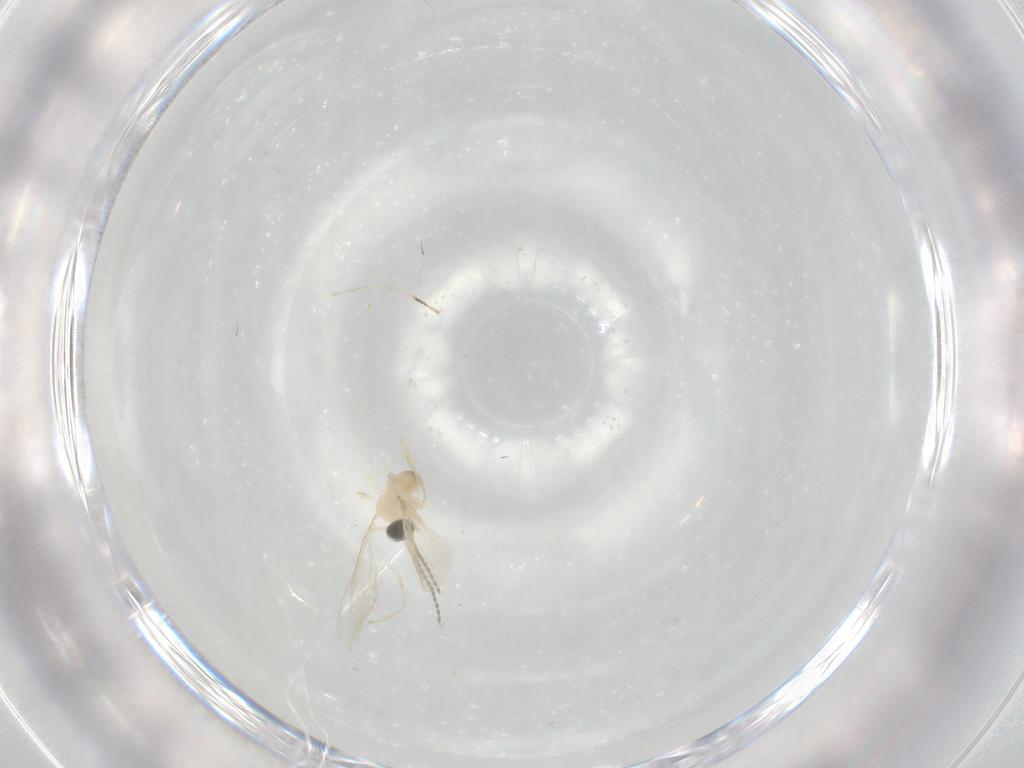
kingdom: Animalia
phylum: Arthropoda
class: Insecta
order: Diptera
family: Cecidomyiidae
